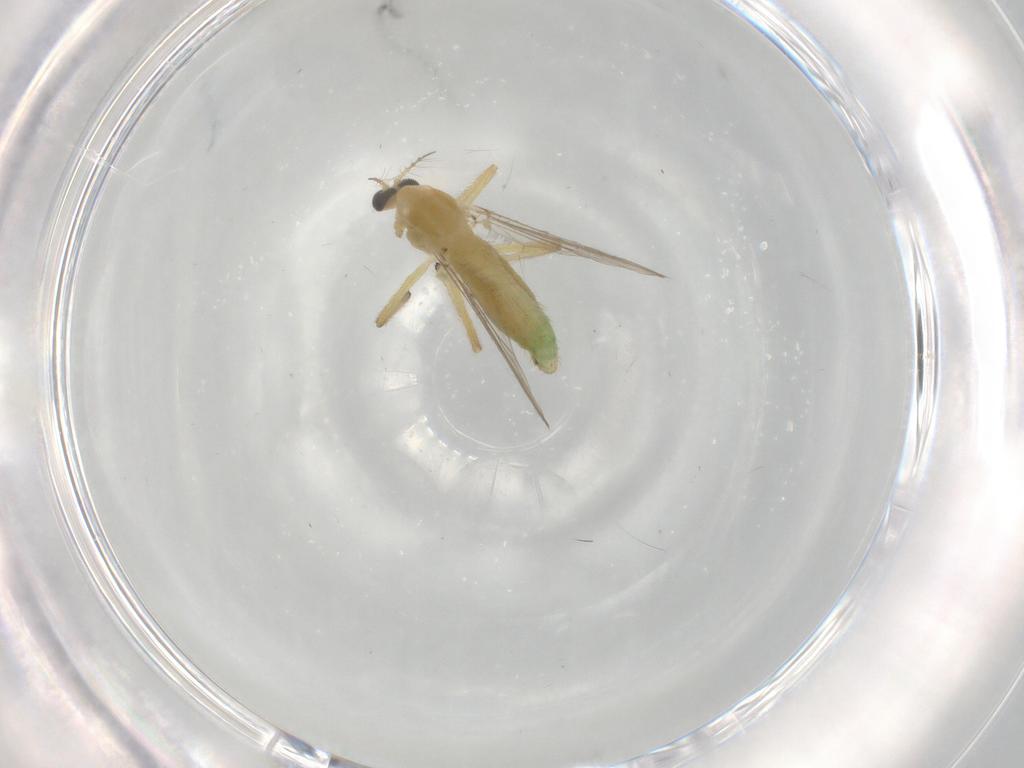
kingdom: Animalia
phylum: Arthropoda
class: Insecta
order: Diptera
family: Chironomidae
